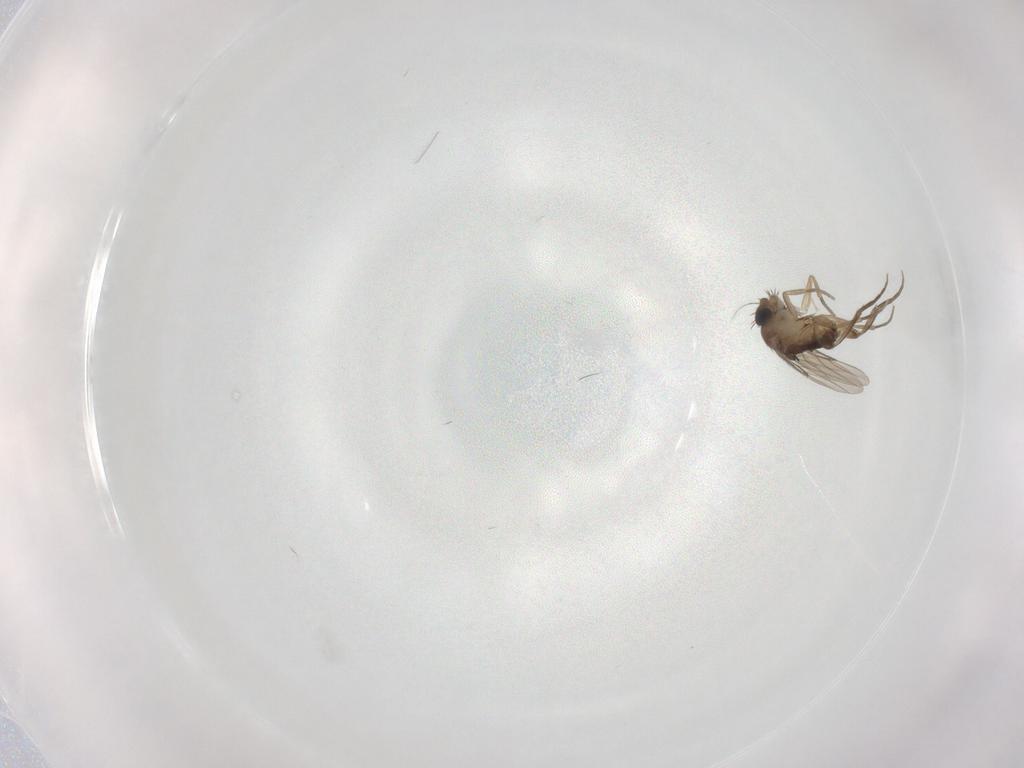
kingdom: Animalia
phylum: Arthropoda
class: Insecta
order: Diptera
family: Phoridae
